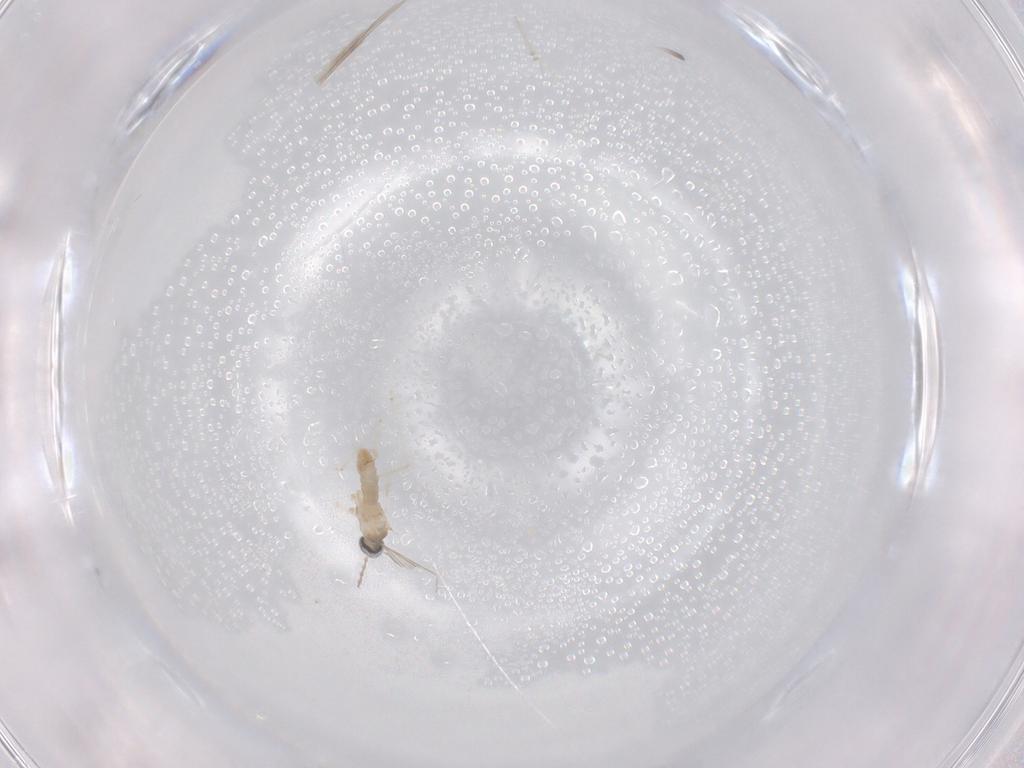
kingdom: Animalia
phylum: Arthropoda
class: Insecta
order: Diptera
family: Cecidomyiidae
